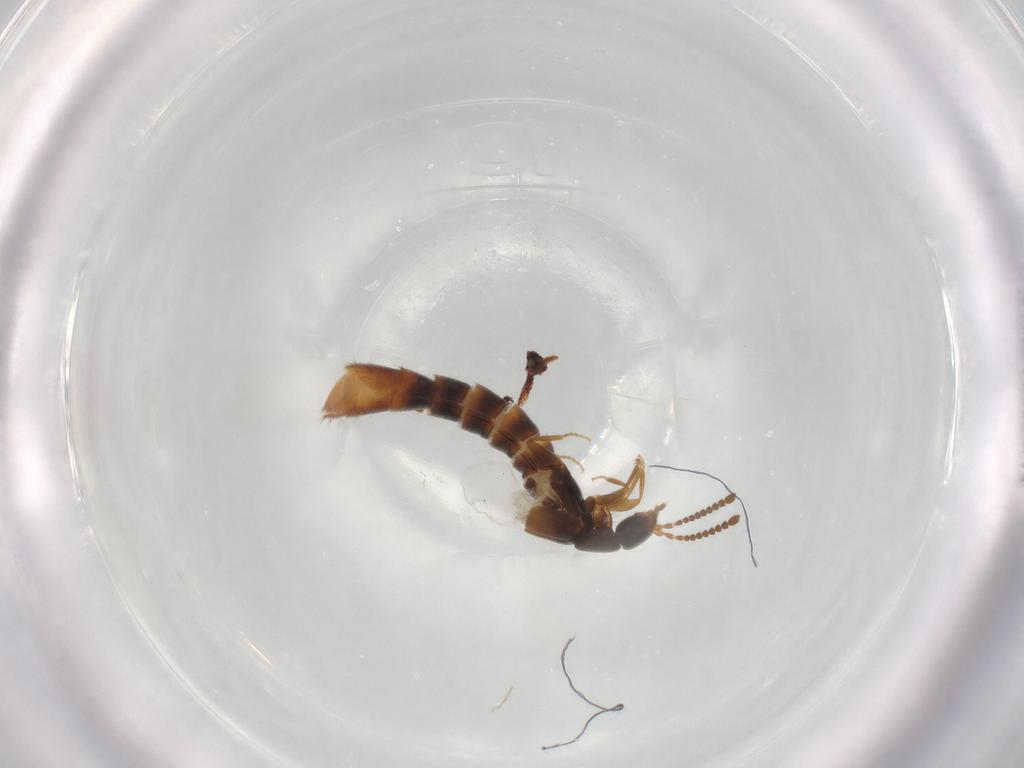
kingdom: Animalia
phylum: Arthropoda
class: Insecta
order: Coleoptera
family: Staphylinidae
